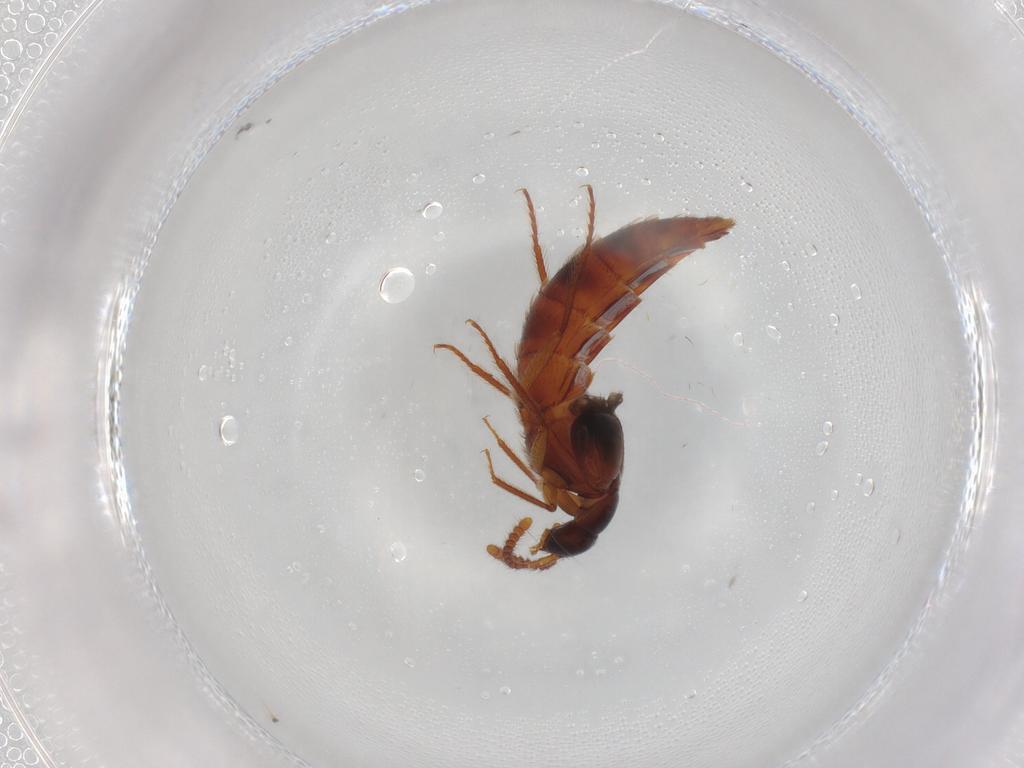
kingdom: Animalia
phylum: Arthropoda
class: Insecta
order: Coleoptera
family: Staphylinidae
